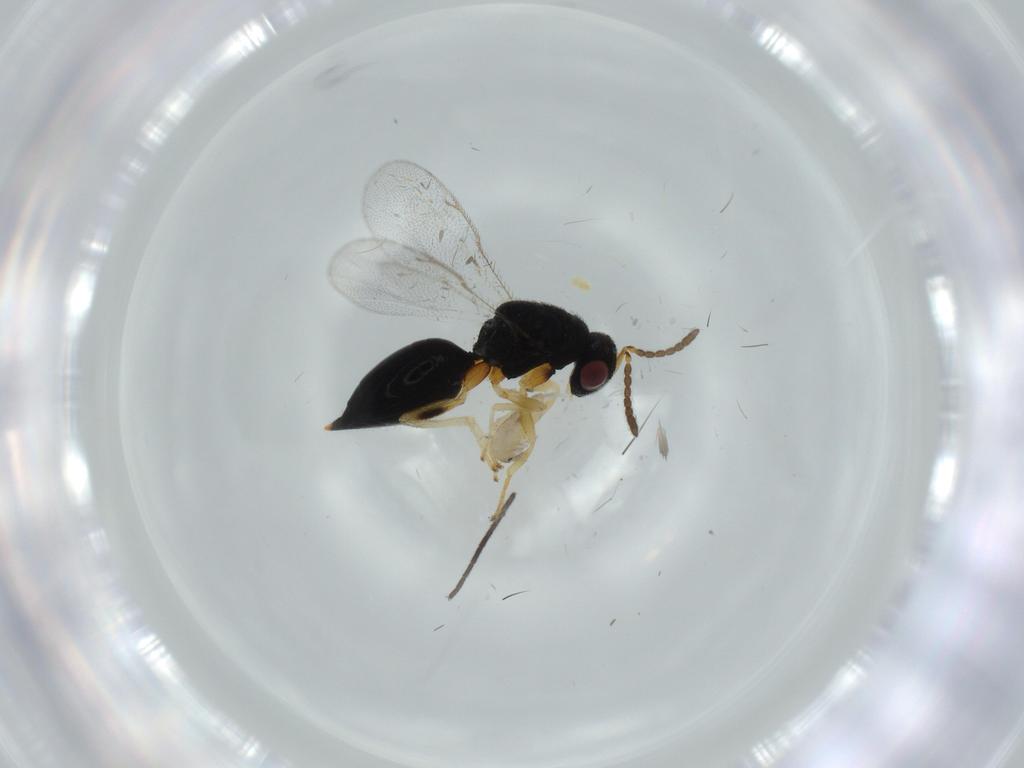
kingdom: Animalia
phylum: Arthropoda
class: Insecta
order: Hymenoptera
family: Eurytomidae
